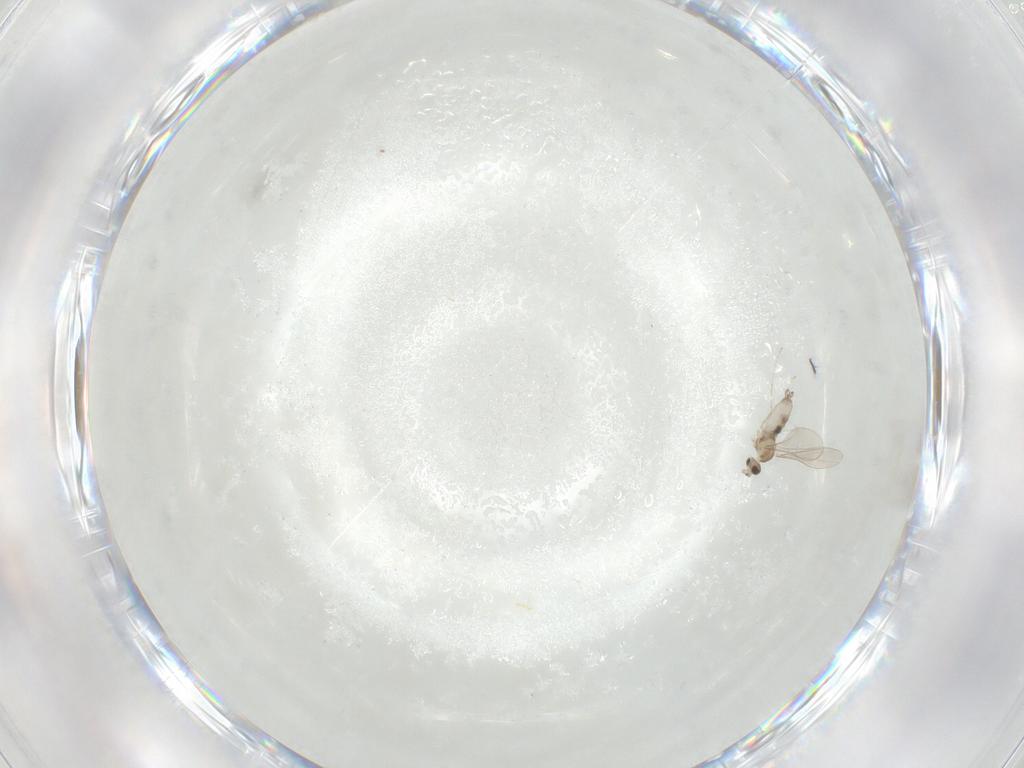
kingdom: Animalia
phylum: Arthropoda
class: Insecta
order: Diptera
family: Cecidomyiidae
